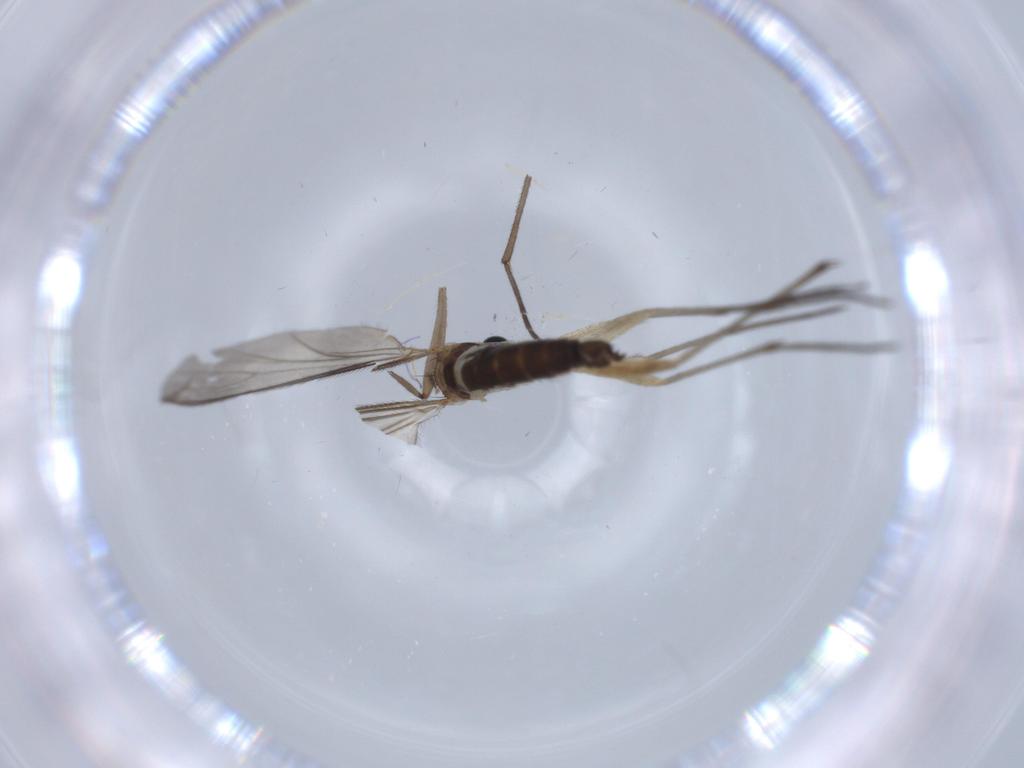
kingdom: Animalia
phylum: Arthropoda
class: Insecta
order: Diptera
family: Sciaridae
